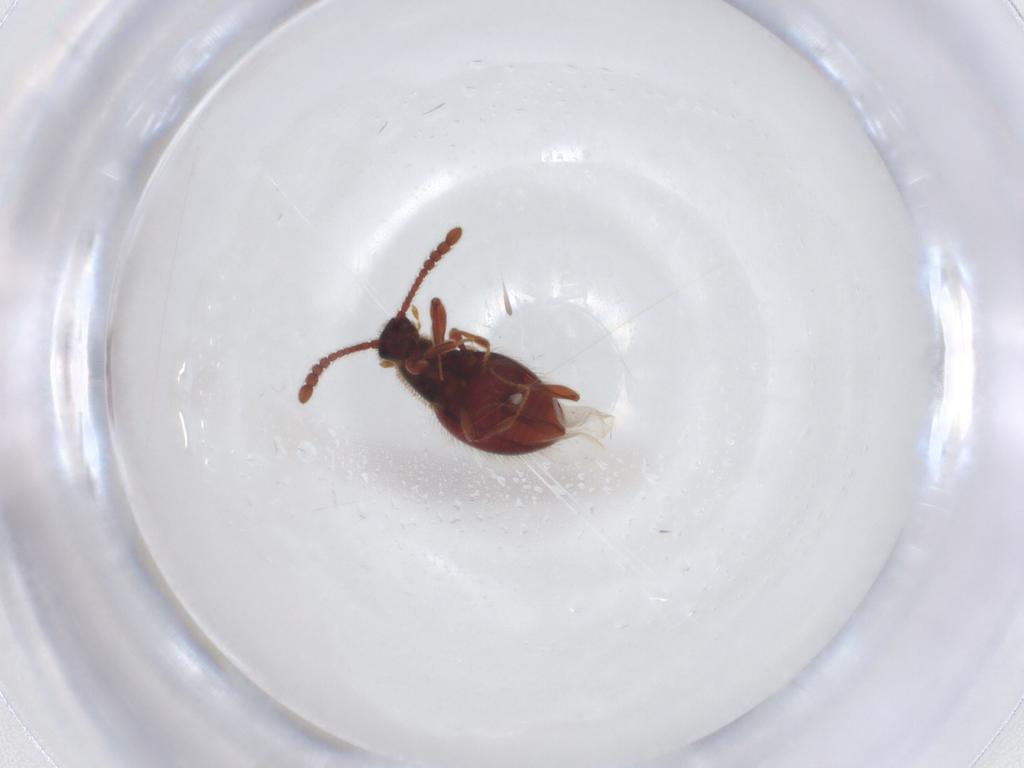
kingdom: Animalia
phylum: Arthropoda
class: Insecta
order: Coleoptera
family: Staphylinidae
